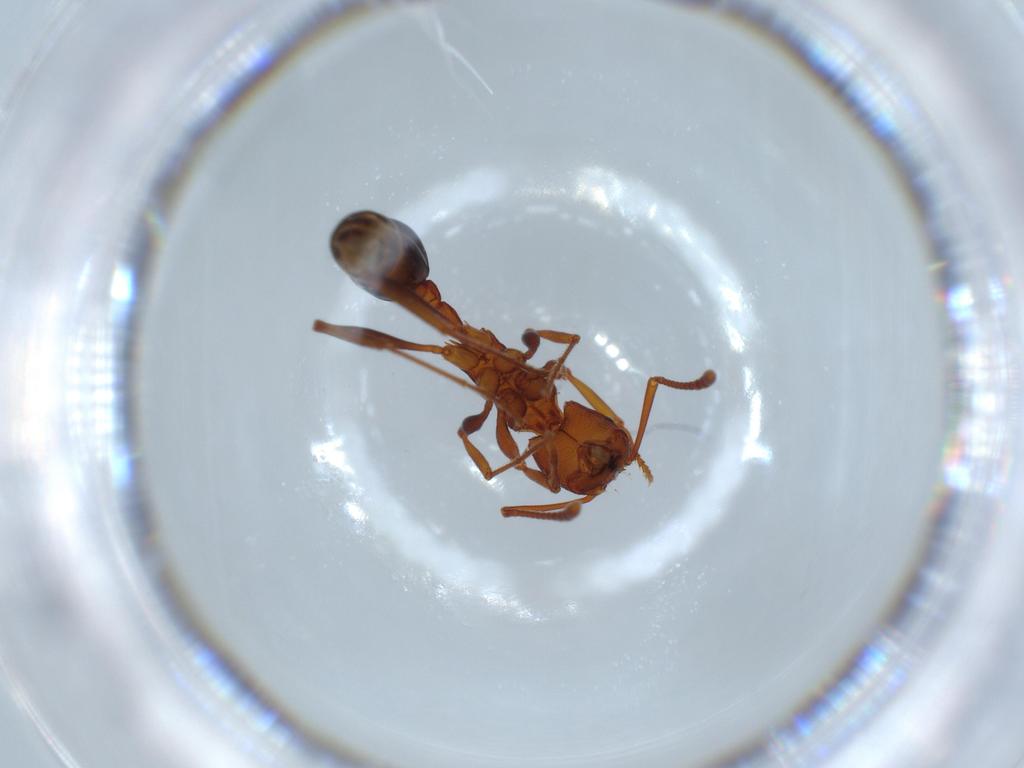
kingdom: Animalia
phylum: Arthropoda
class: Insecta
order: Hymenoptera
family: Formicidae
